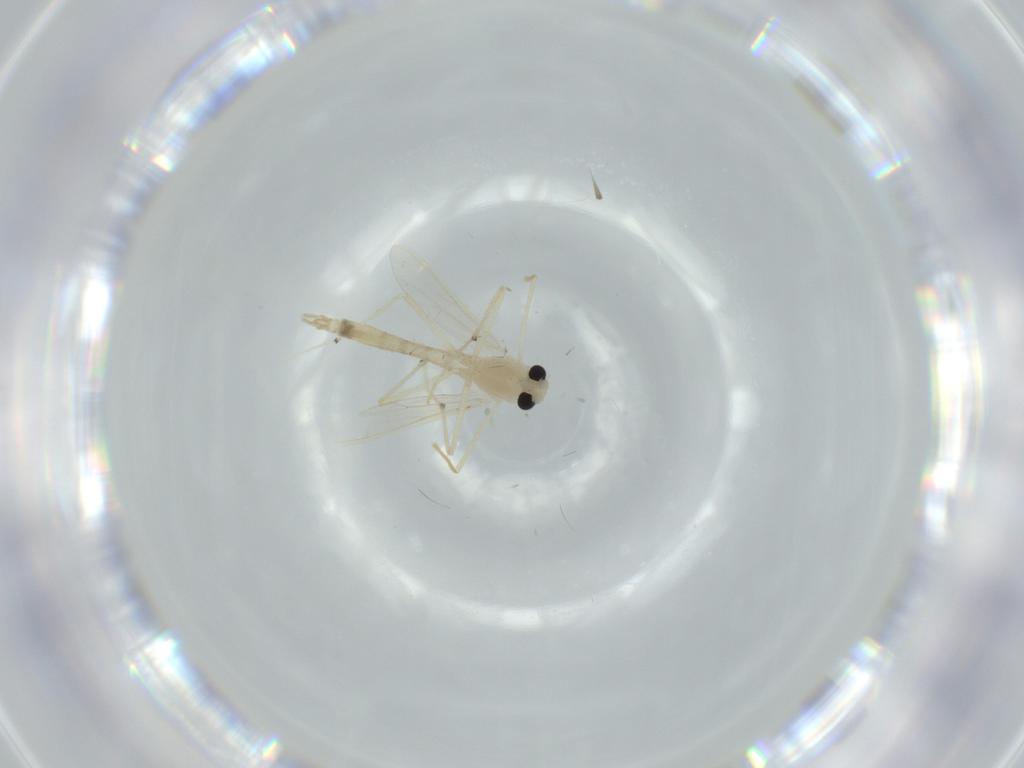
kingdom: Animalia
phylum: Arthropoda
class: Insecta
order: Diptera
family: Chironomidae
